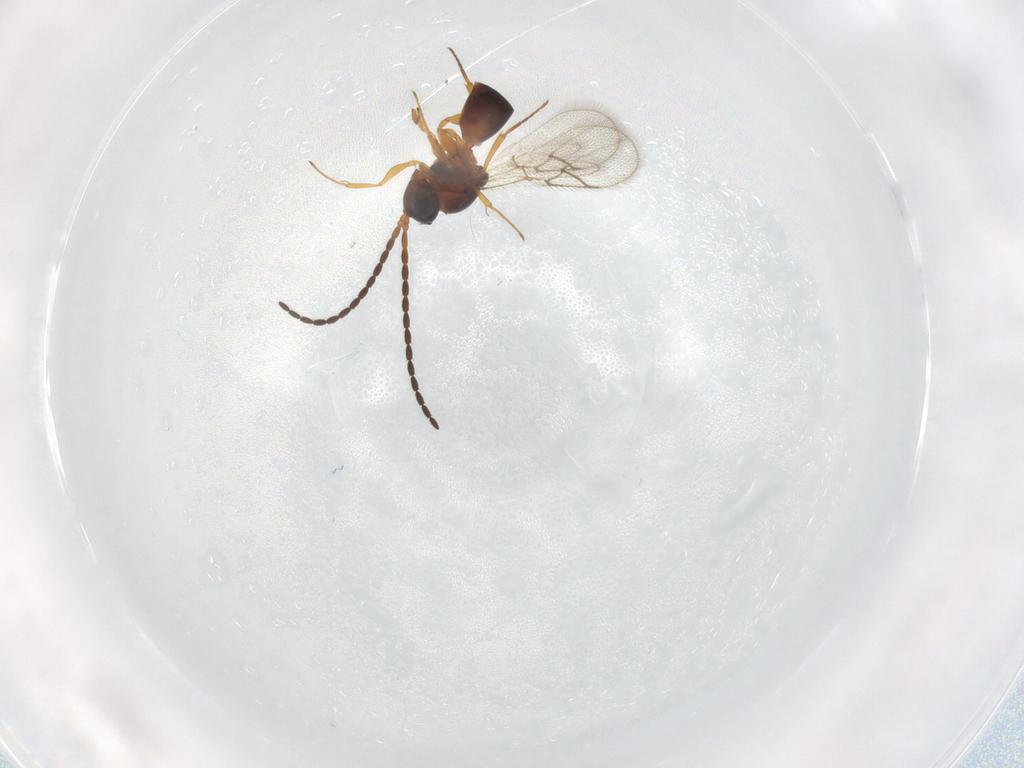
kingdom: Animalia
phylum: Arthropoda
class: Insecta
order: Hymenoptera
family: Figitidae
